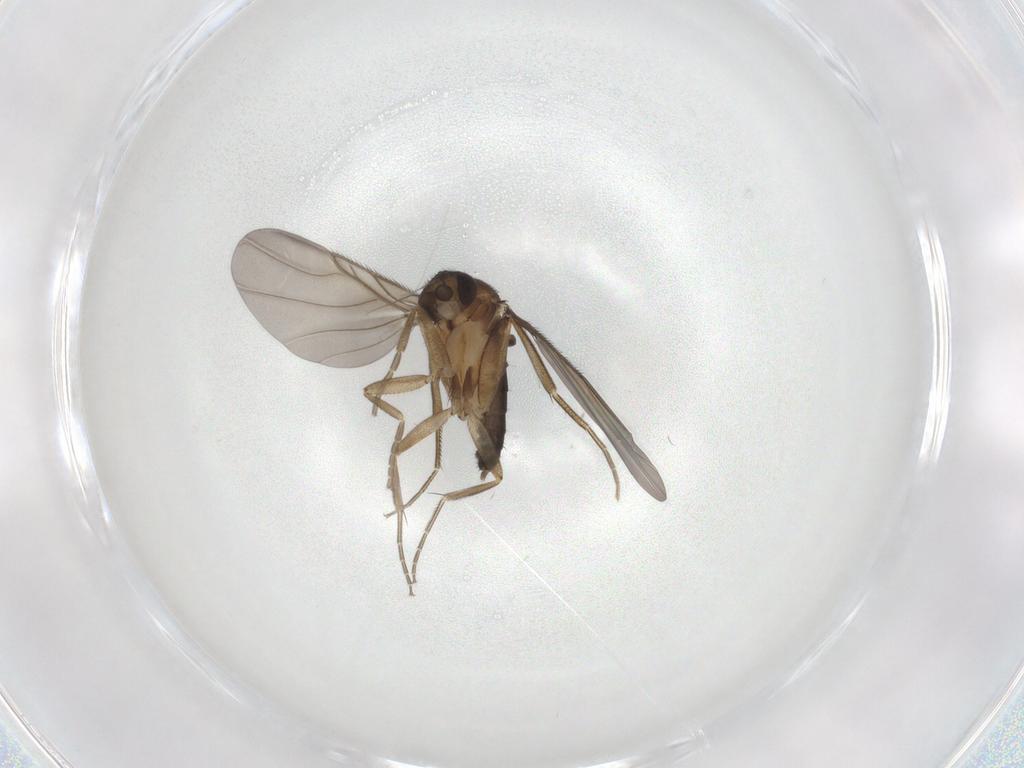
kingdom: Animalia
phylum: Arthropoda
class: Insecta
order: Diptera
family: Phoridae
